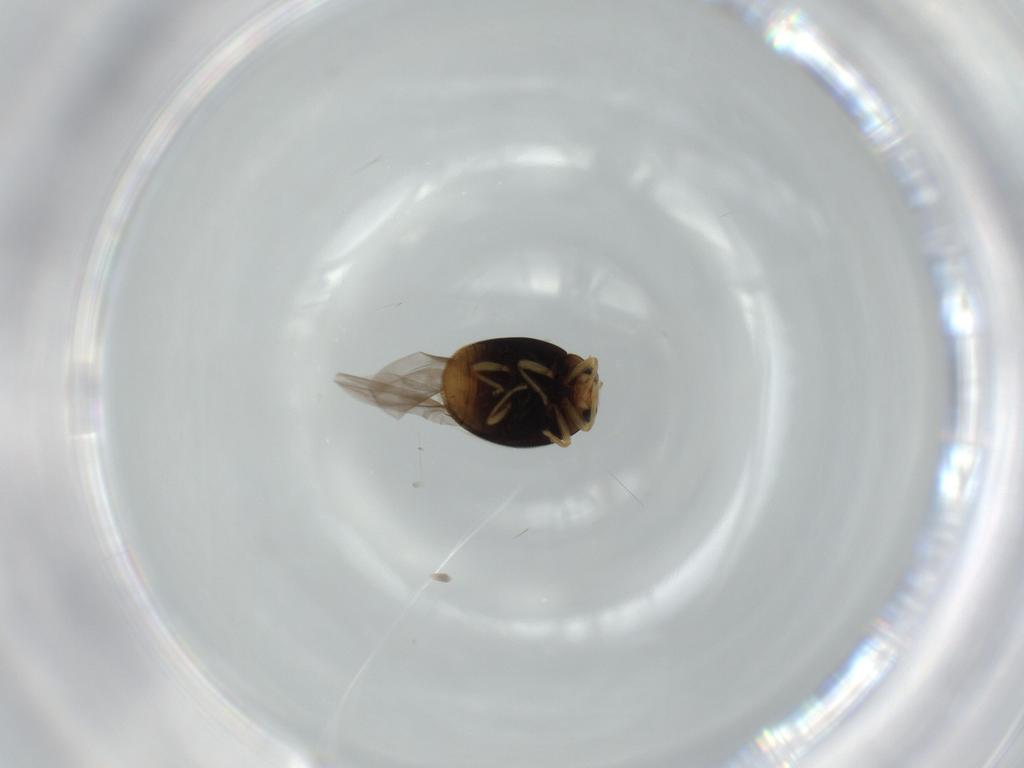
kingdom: Animalia
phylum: Arthropoda
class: Insecta
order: Coleoptera
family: Coccinellidae
